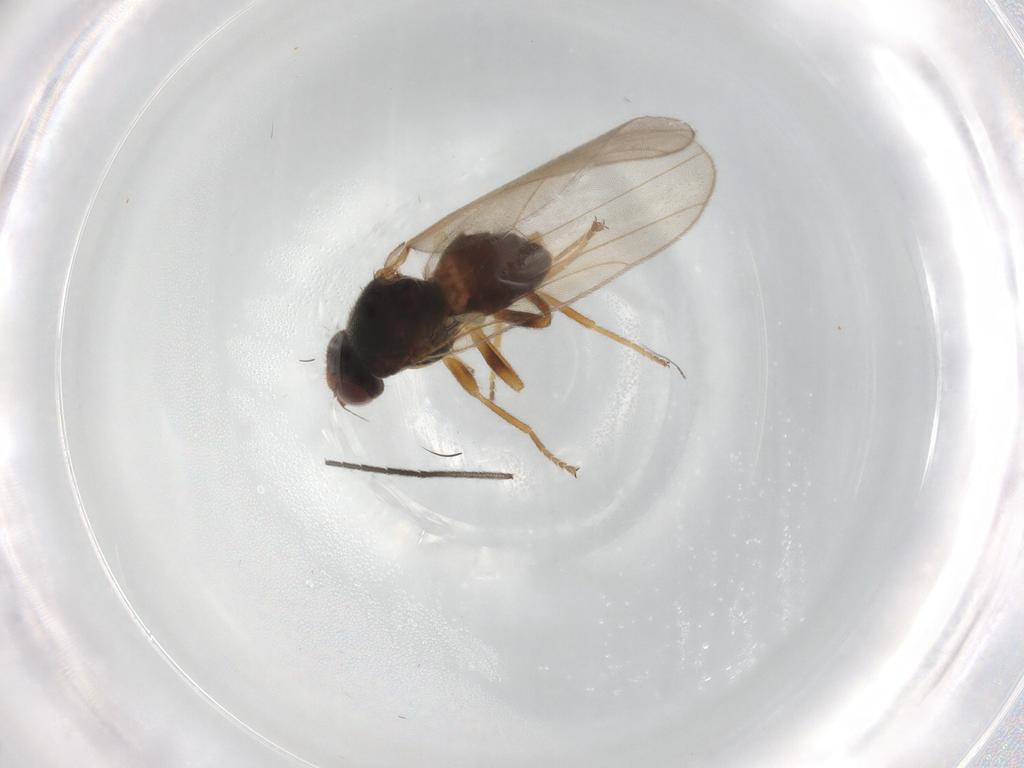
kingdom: Animalia
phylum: Arthropoda
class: Insecta
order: Diptera
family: Chloropidae
